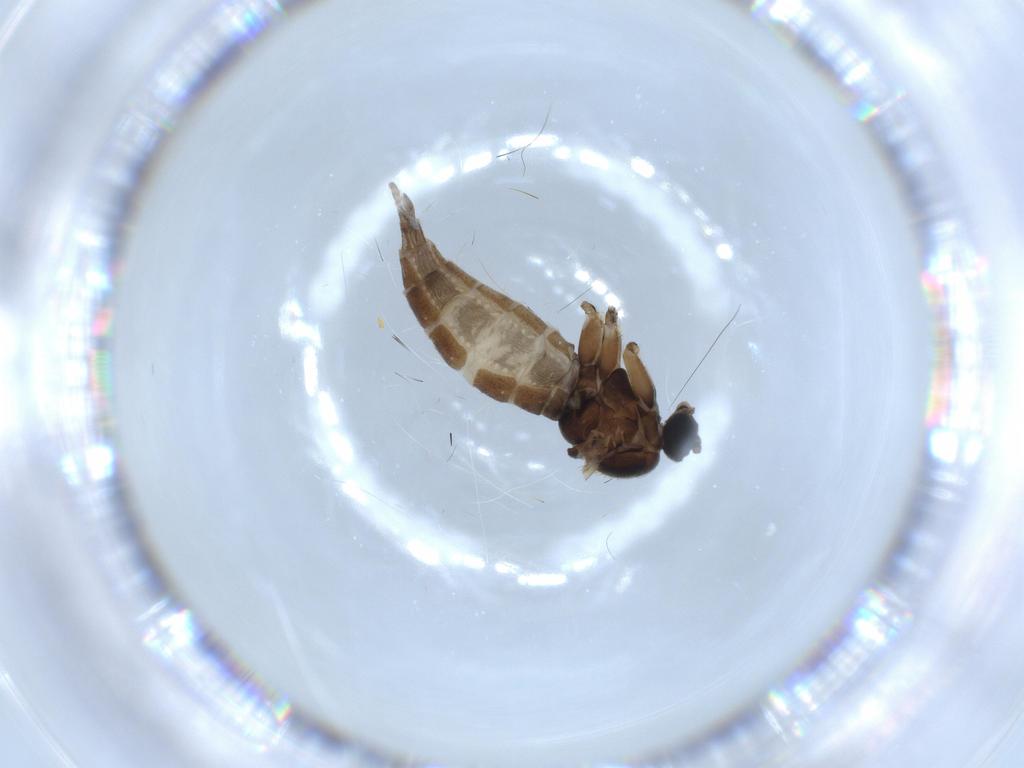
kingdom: Animalia
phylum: Arthropoda
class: Insecta
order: Diptera
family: Sciaridae
